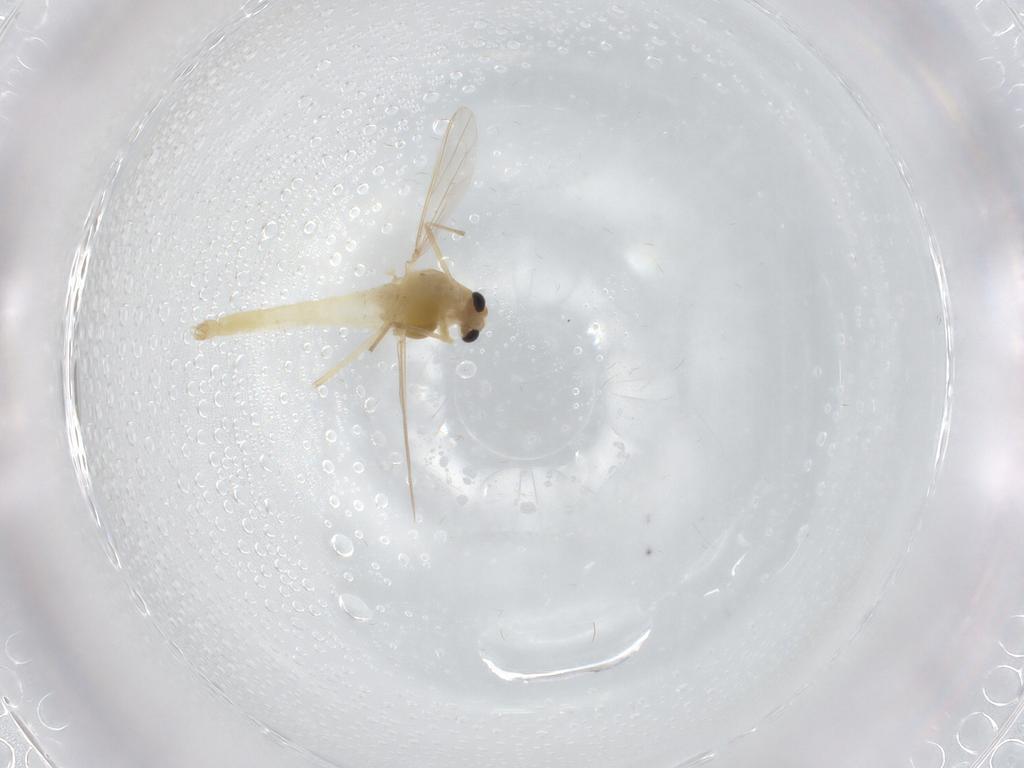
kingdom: Animalia
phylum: Arthropoda
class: Insecta
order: Diptera
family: Chironomidae
